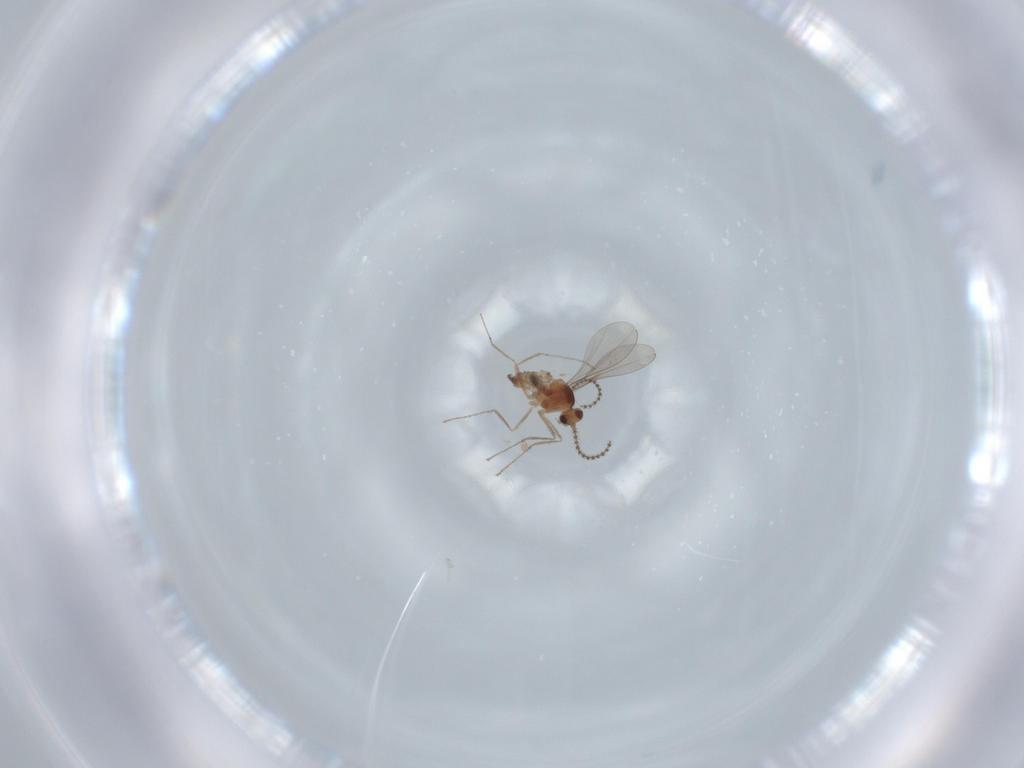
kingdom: Animalia
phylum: Arthropoda
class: Insecta
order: Diptera
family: Cecidomyiidae
